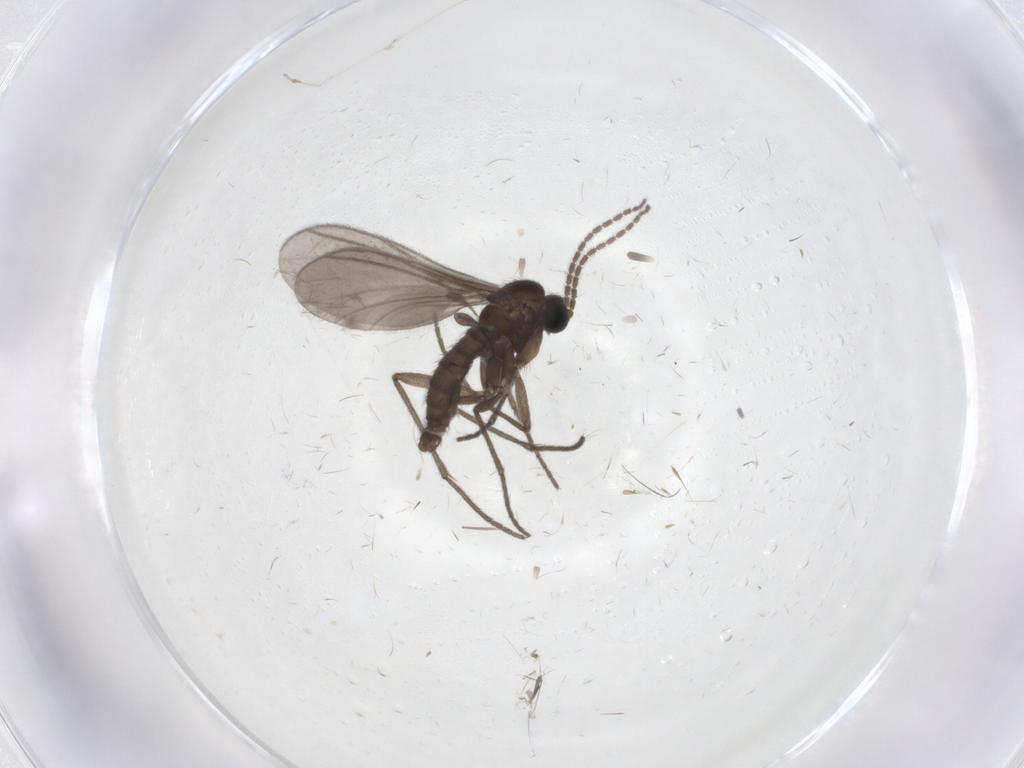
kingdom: Animalia
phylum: Arthropoda
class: Insecta
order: Diptera
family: Sciaridae
